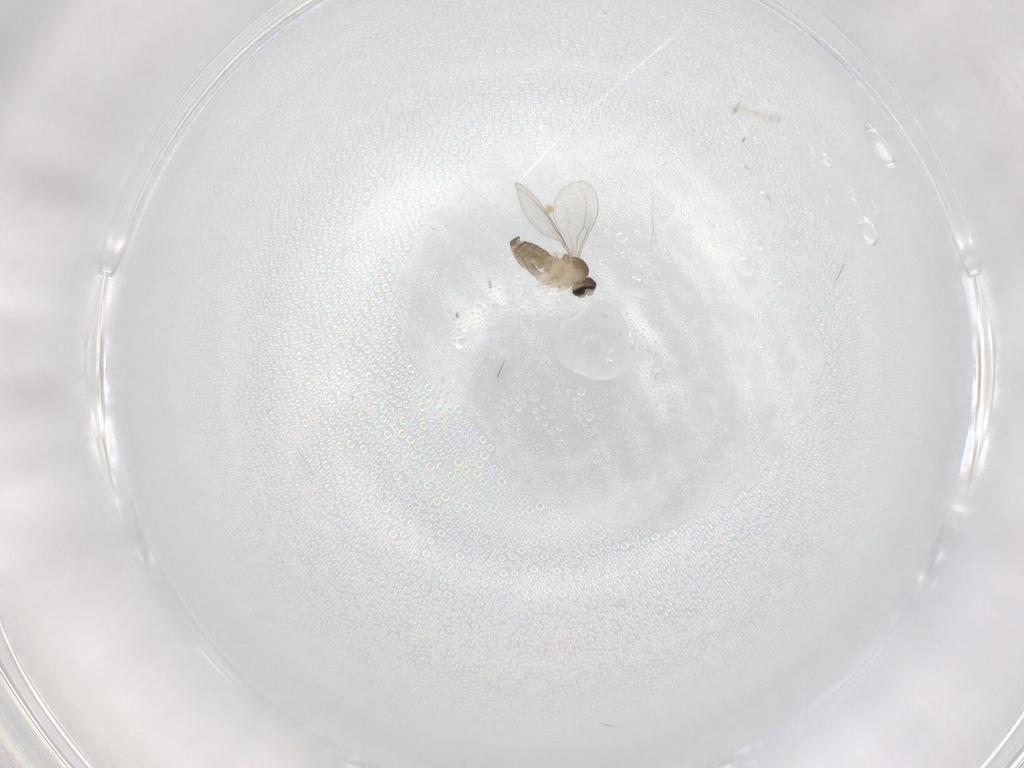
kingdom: Animalia
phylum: Arthropoda
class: Insecta
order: Diptera
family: Cecidomyiidae
